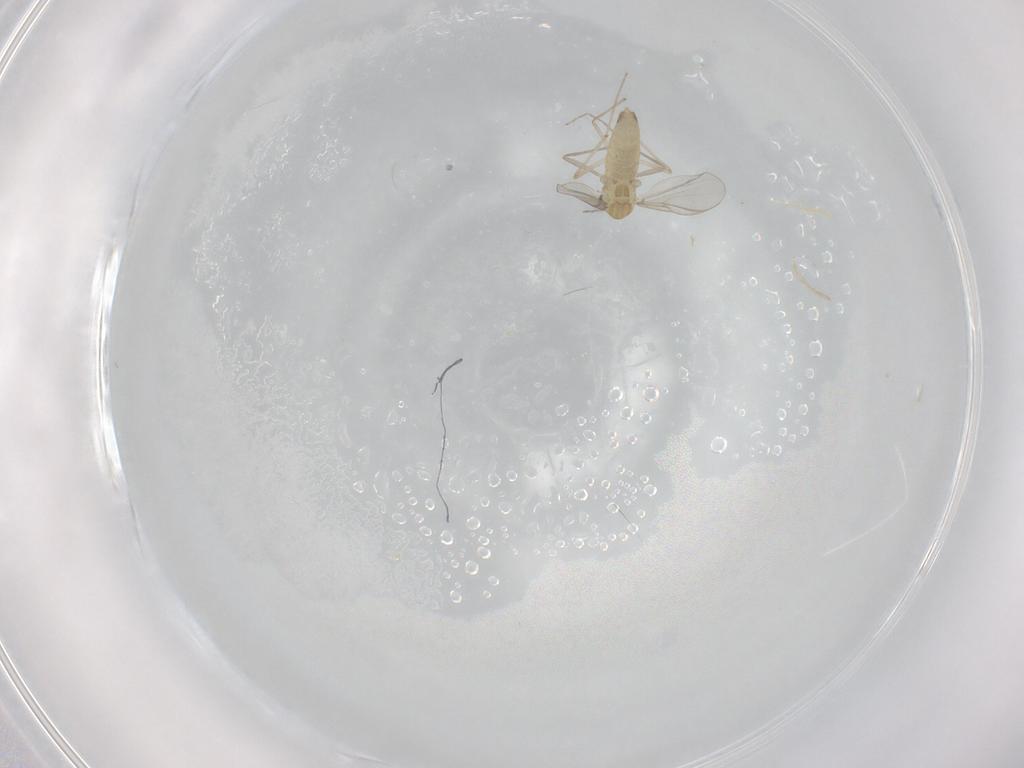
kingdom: Animalia
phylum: Arthropoda
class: Insecta
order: Diptera
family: Chironomidae
